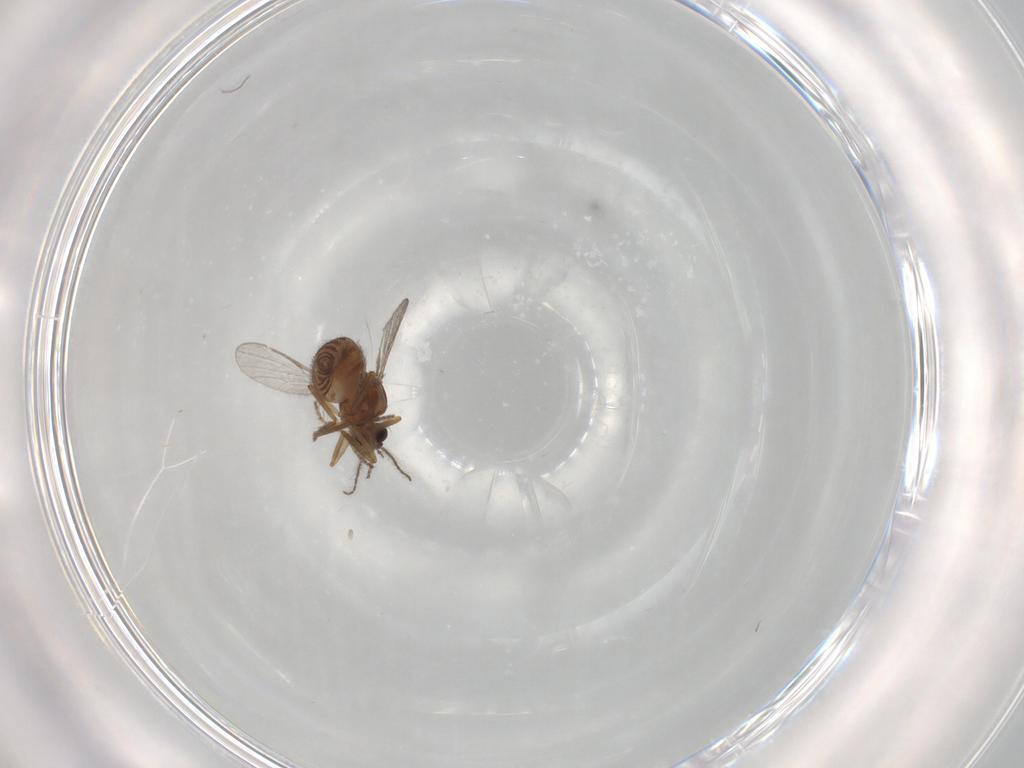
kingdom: Animalia
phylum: Arthropoda
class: Insecta
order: Diptera
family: Ceratopogonidae
